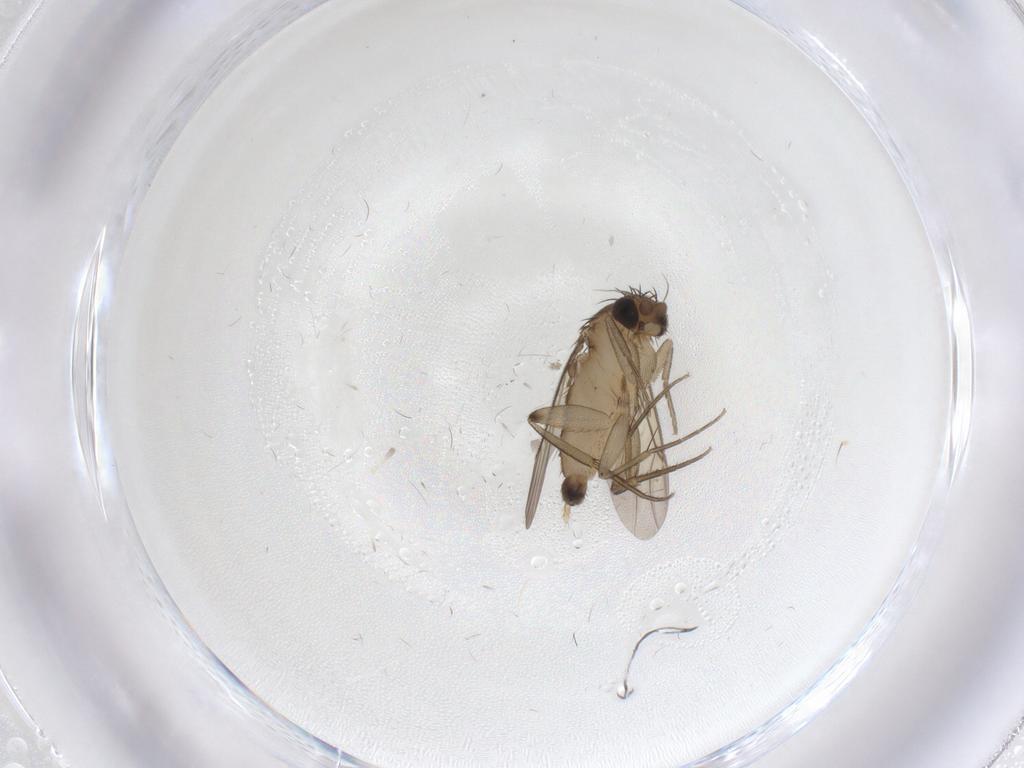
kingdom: Animalia
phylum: Arthropoda
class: Insecta
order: Diptera
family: Phoridae
